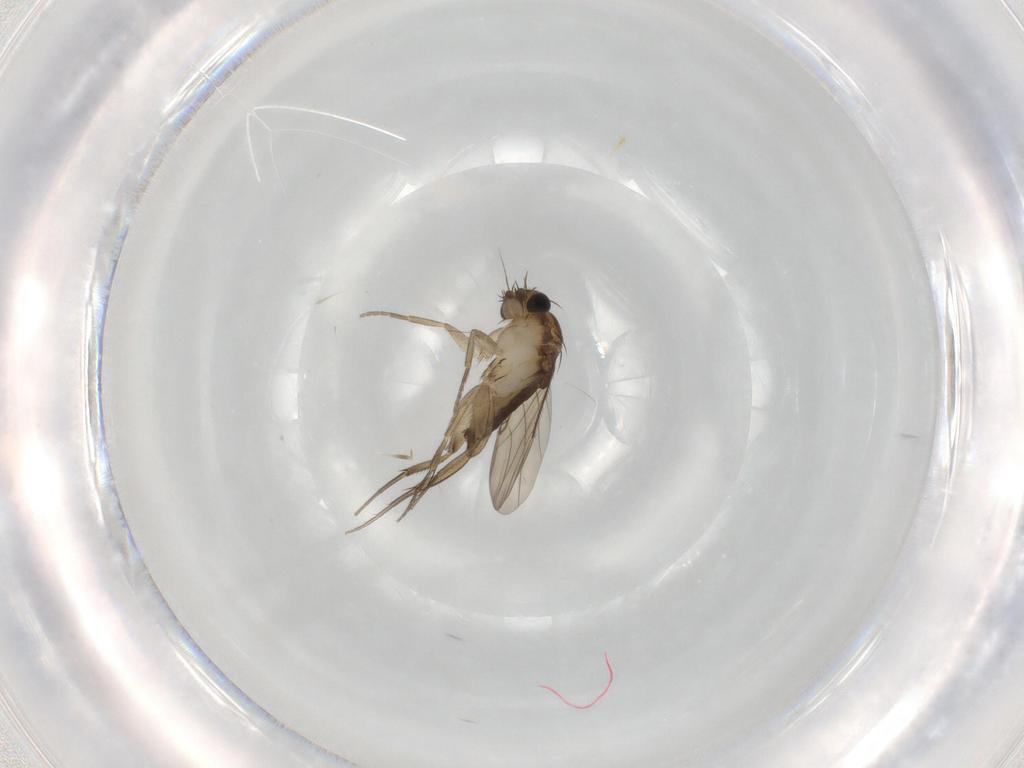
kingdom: Animalia
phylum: Arthropoda
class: Insecta
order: Diptera
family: Phoridae
